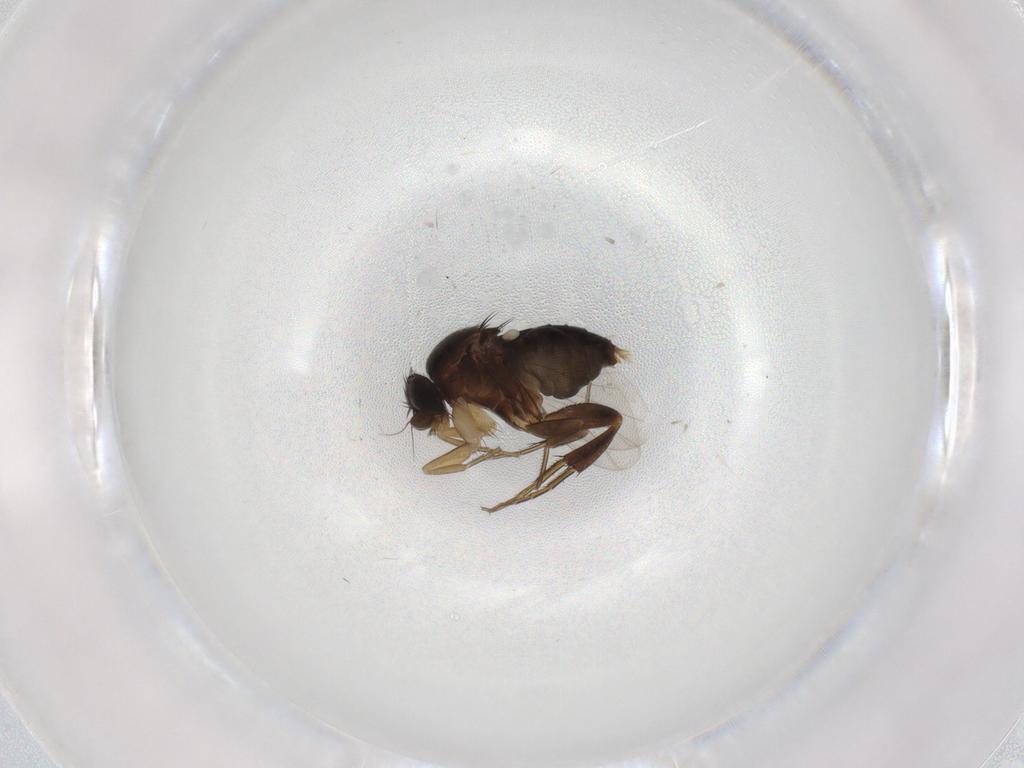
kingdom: Animalia
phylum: Arthropoda
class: Insecta
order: Diptera
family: Phoridae
